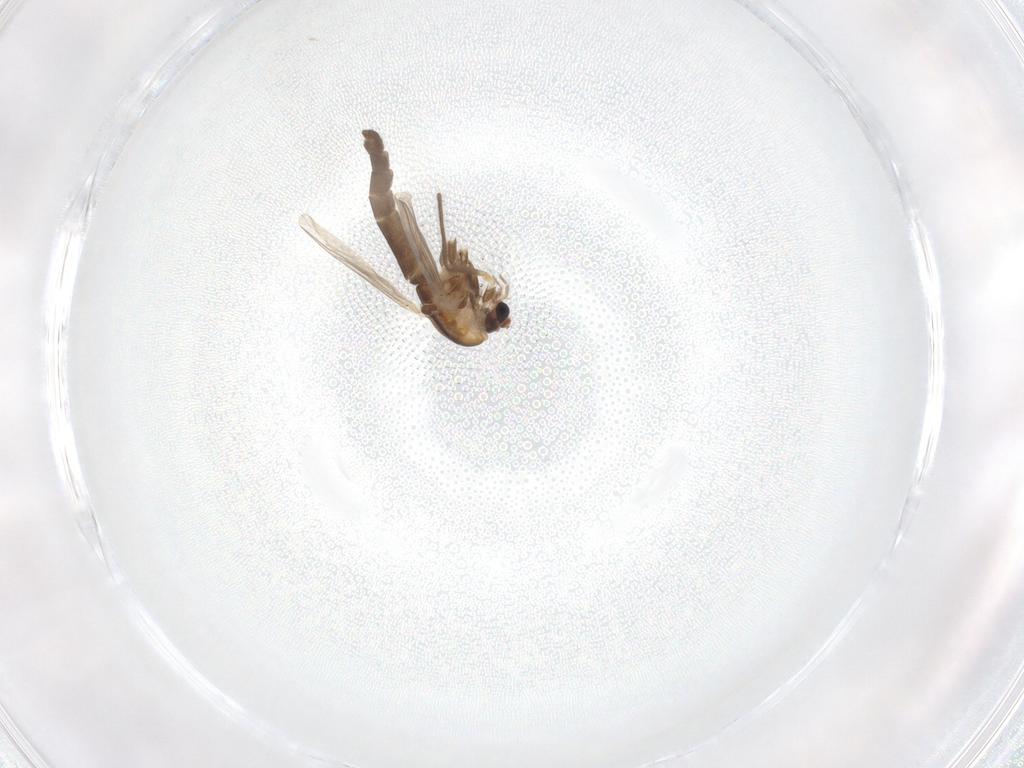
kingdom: Animalia
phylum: Arthropoda
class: Insecta
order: Diptera
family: Chironomidae
